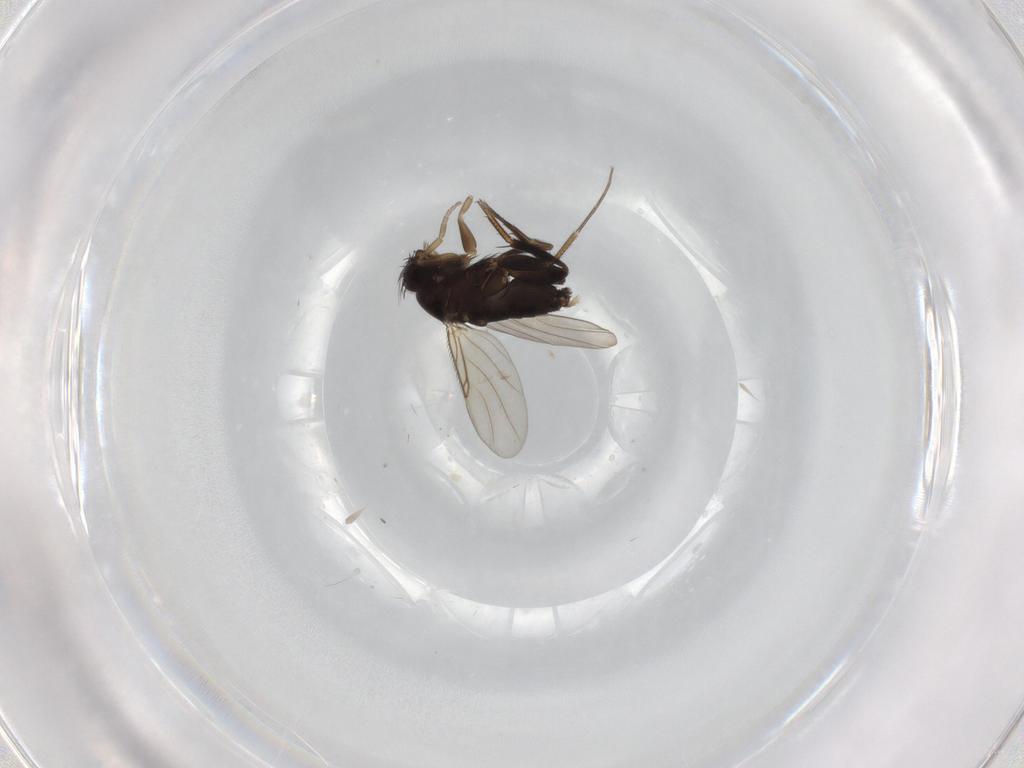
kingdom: Animalia
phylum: Arthropoda
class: Insecta
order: Diptera
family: Phoridae
